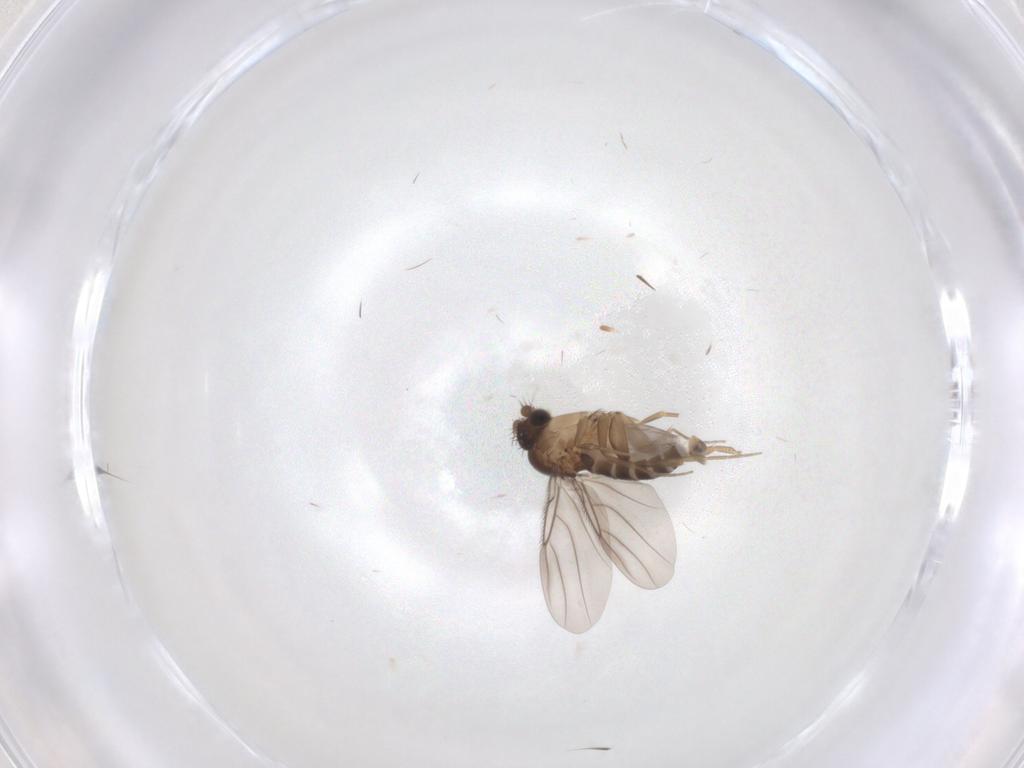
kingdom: Animalia
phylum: Arthropoda
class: Insecta
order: Diptera
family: Phoridae
